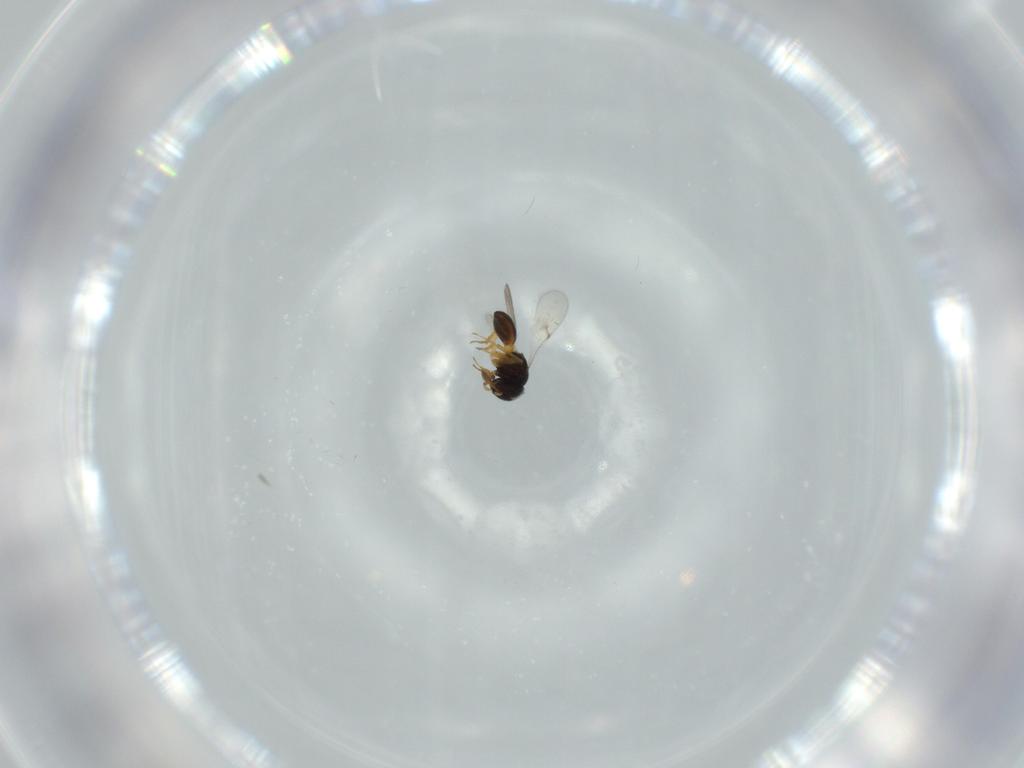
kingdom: Animalia
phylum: Arthropoda
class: Insecta
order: Hymenoptera
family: Scelionidae
